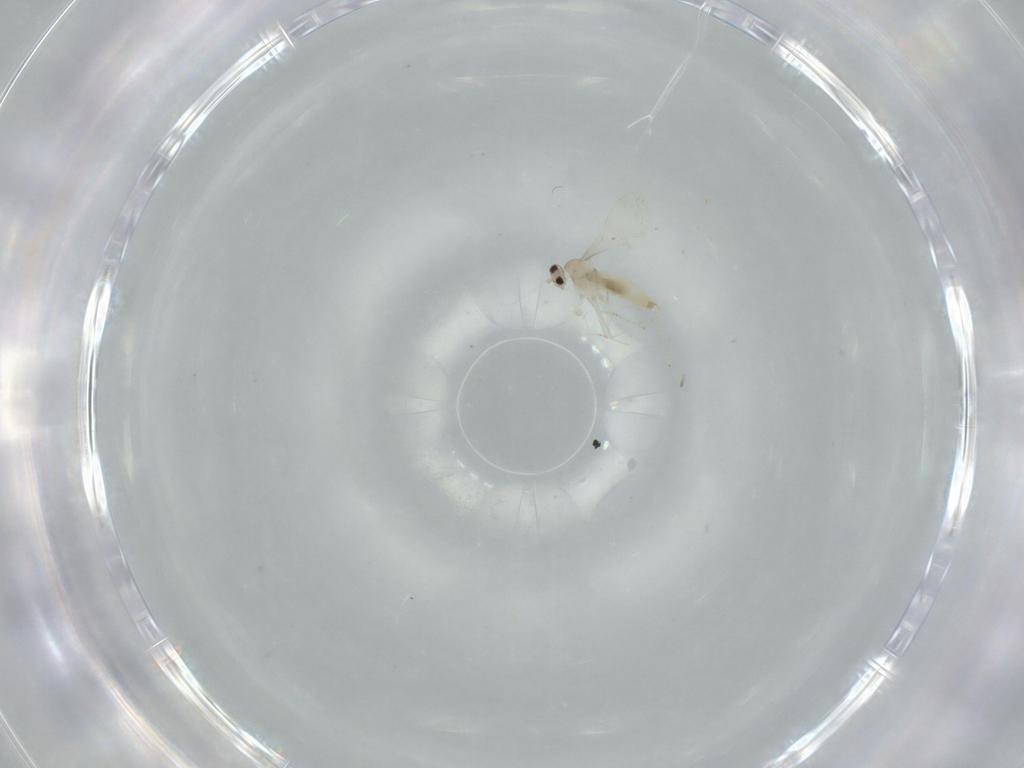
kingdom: Animalia
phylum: Arthropoda
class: Insecta
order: Diptera
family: Cecidomyiidae
